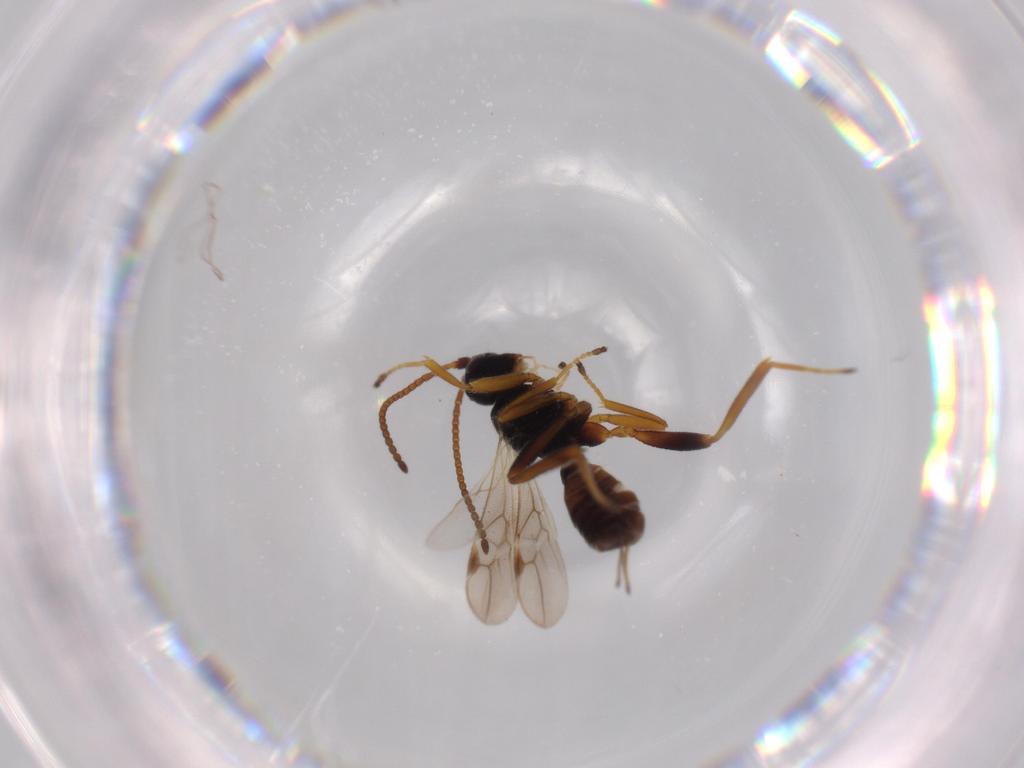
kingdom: Animalia
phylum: Arthropoda
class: Insecta
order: Hymenoptera
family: Braconidae
